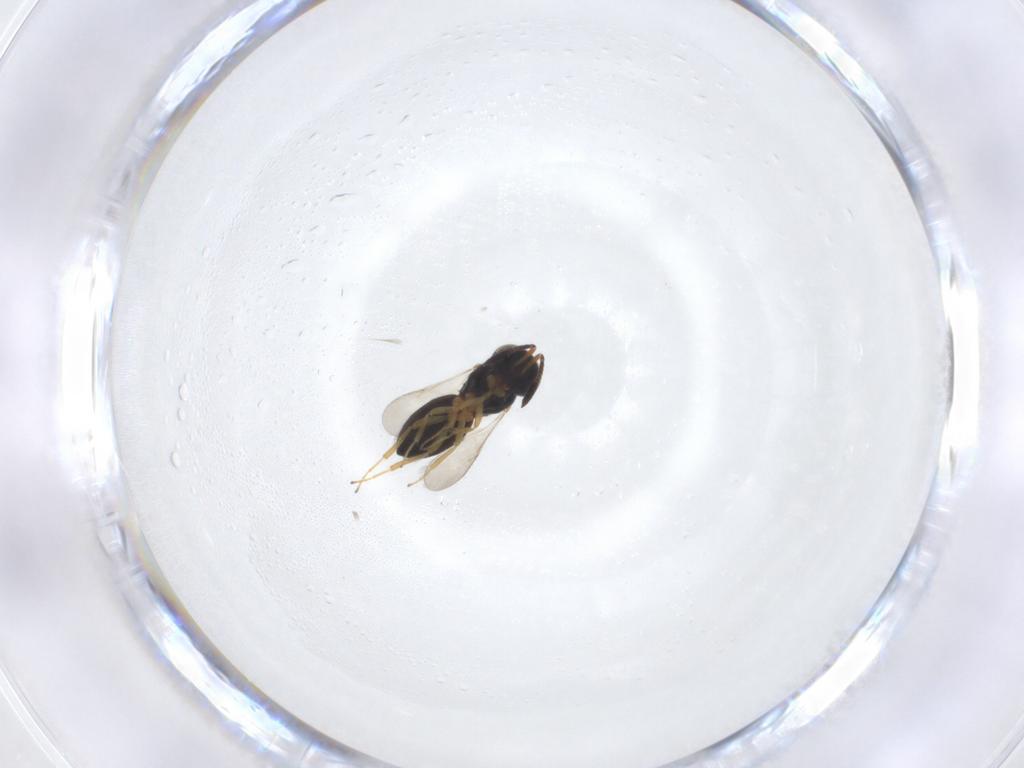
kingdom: Animalia
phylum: Arthropoda
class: Insecta
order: Hymenoptera
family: Scelionidae
